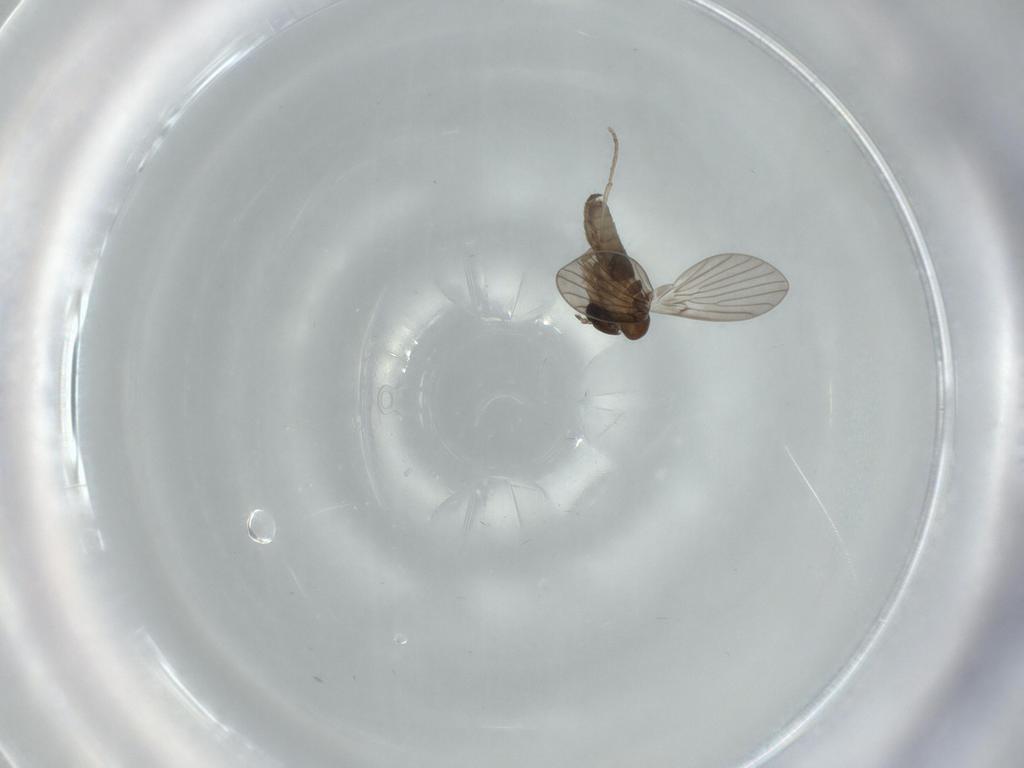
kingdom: Animalia
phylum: Arthropoda
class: Insecta
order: Diptera
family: Psychodidae
